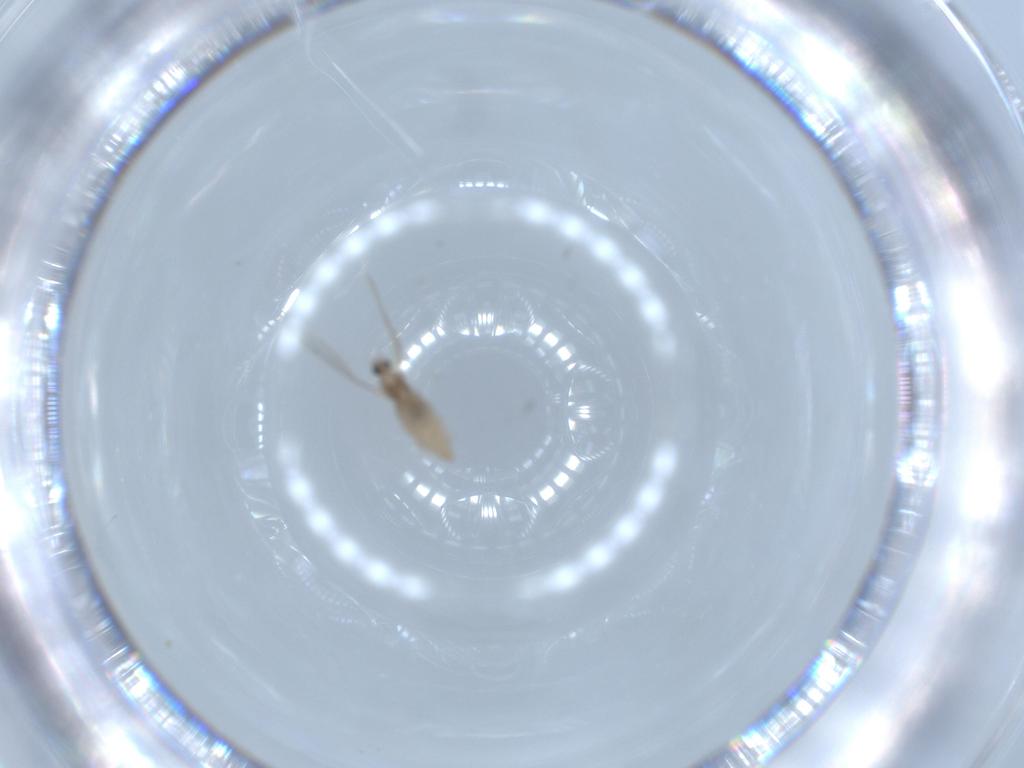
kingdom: Animalia
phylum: Arthropoda
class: Insecta
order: Diptera
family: Cecidomyiidae
